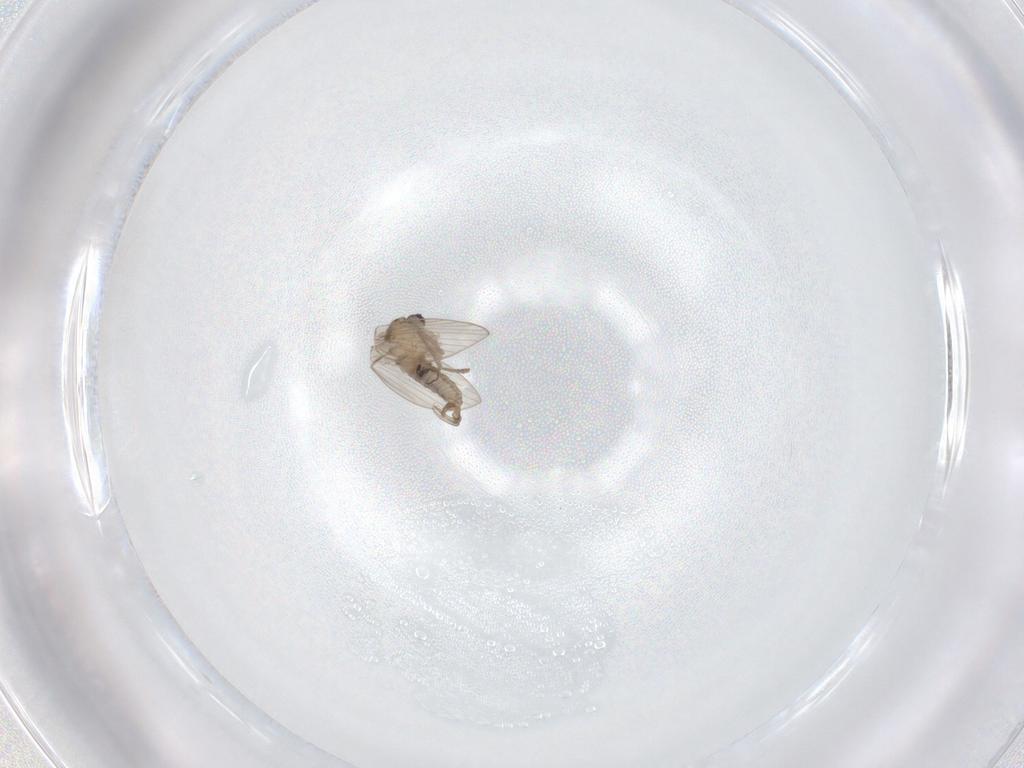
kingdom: Animalia
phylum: Arthropoda
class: Insecta
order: Diptera
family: Psychodidae
